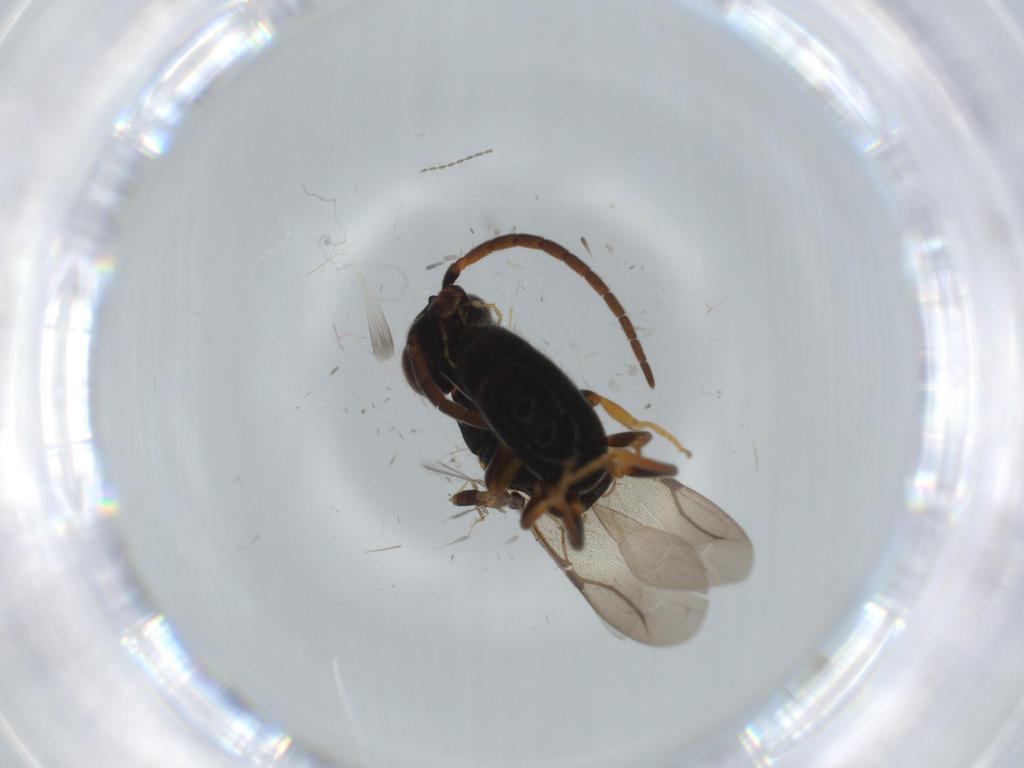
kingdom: Animalia
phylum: Arthropoda
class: Insecta
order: Hymenoptera
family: Bethylidae
